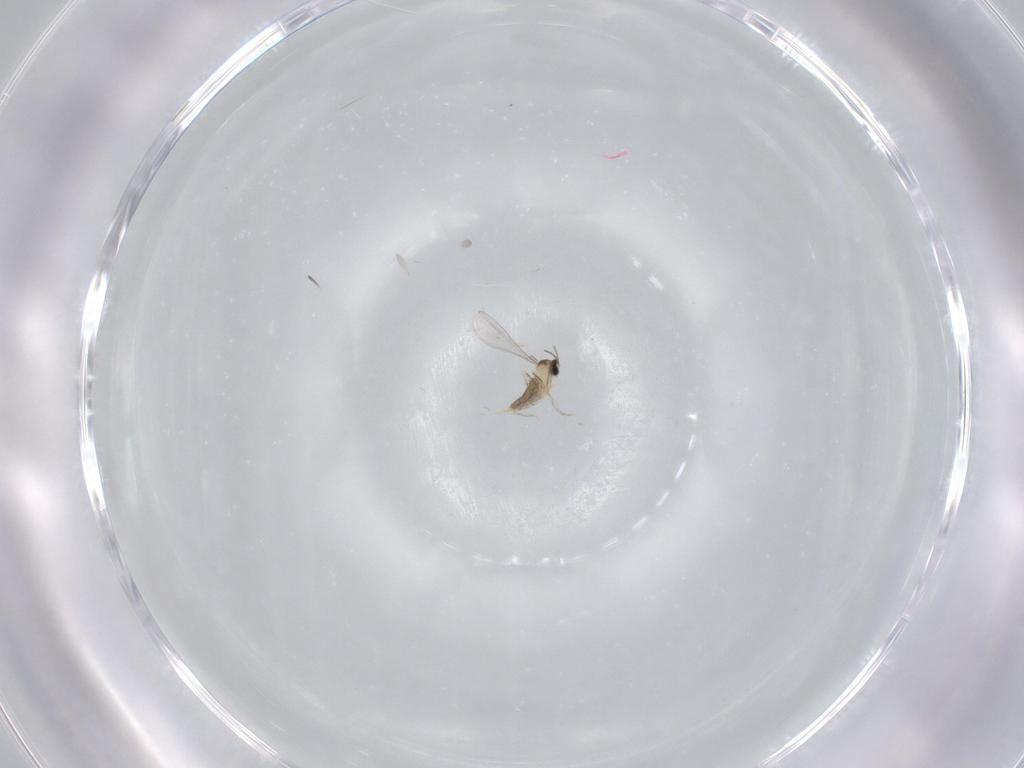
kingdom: Animalia
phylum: Arthropoda
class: Insecta
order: Diptera
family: Cecidomyiidae
